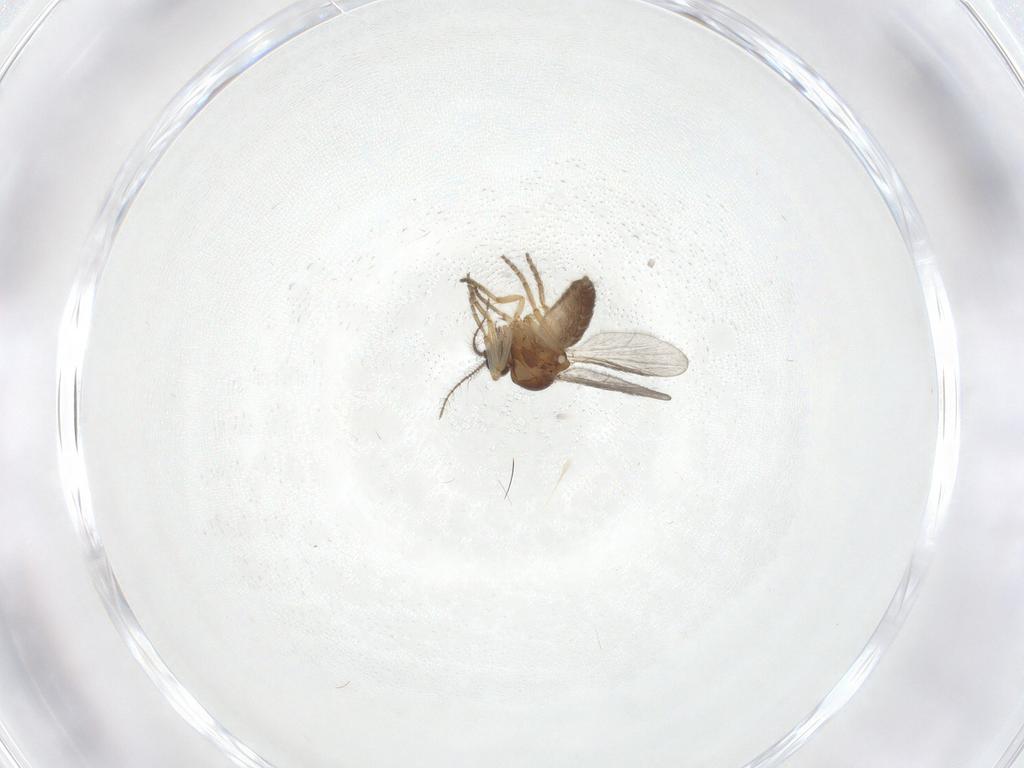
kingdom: Animalia
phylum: Arthropoda
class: Insecta
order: Diptera
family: Ceratopogonidae
